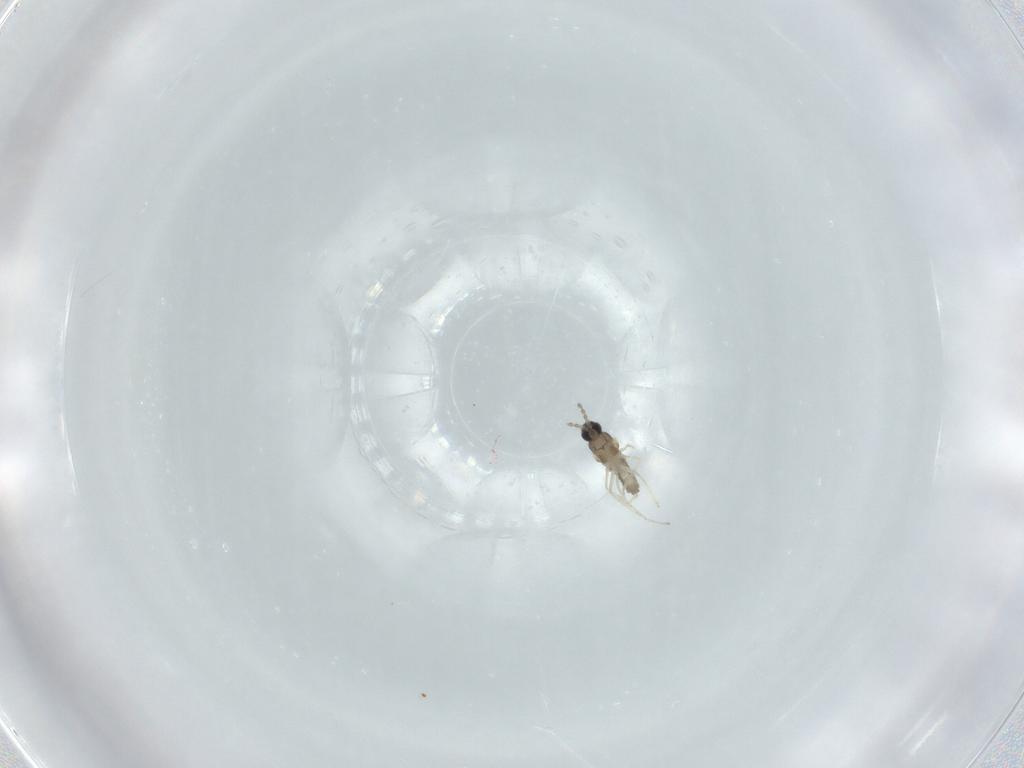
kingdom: Animalia
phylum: Arthropoda
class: Insecta
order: Diptera
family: Cecidomyiidae
